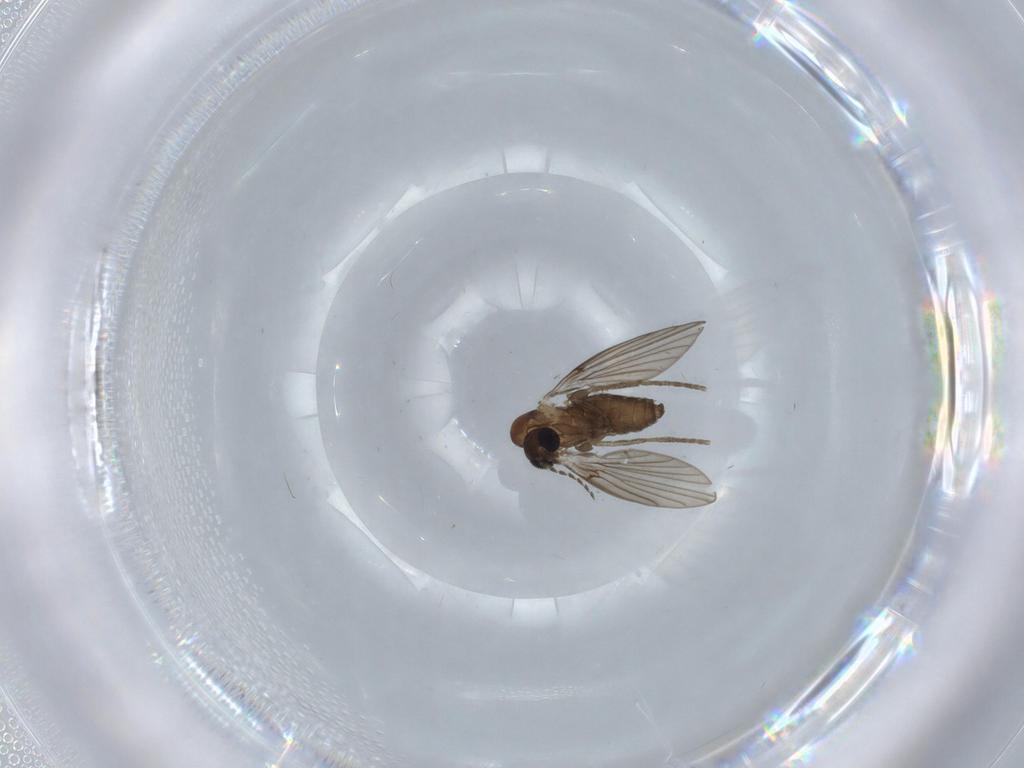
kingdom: Animalia
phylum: Arthropoda
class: Insecta
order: Diptera
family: Psychodidae
